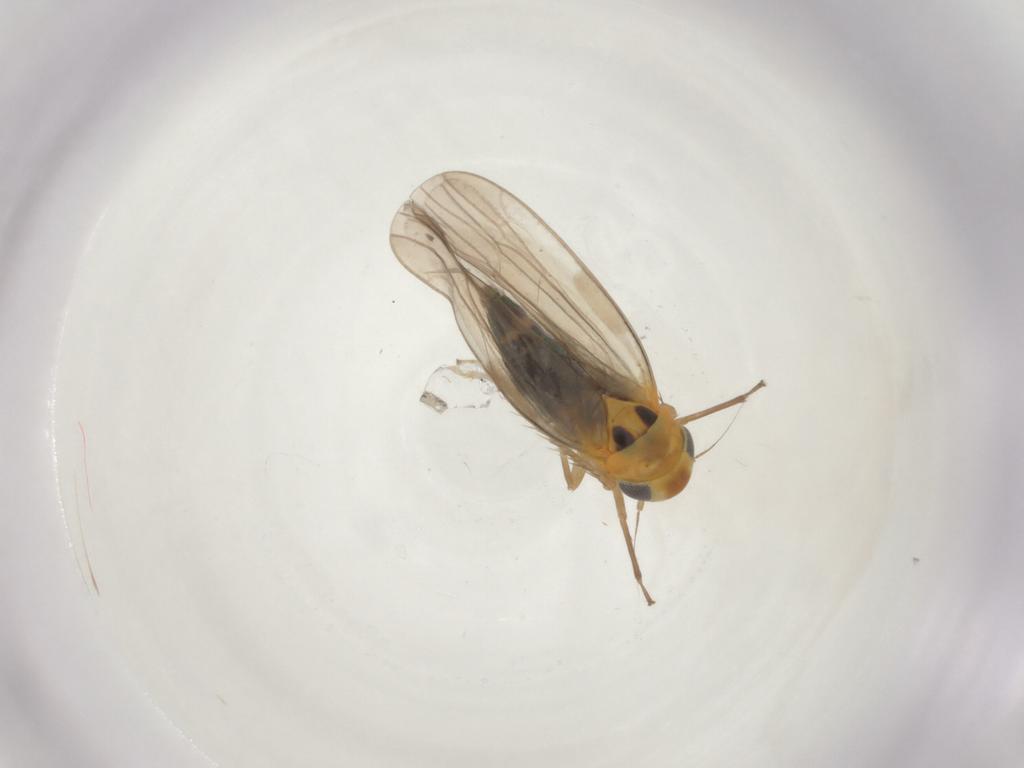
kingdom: Animalia
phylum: Arthropoda
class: Insecta
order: Hemiptera
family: Cicadellidae
